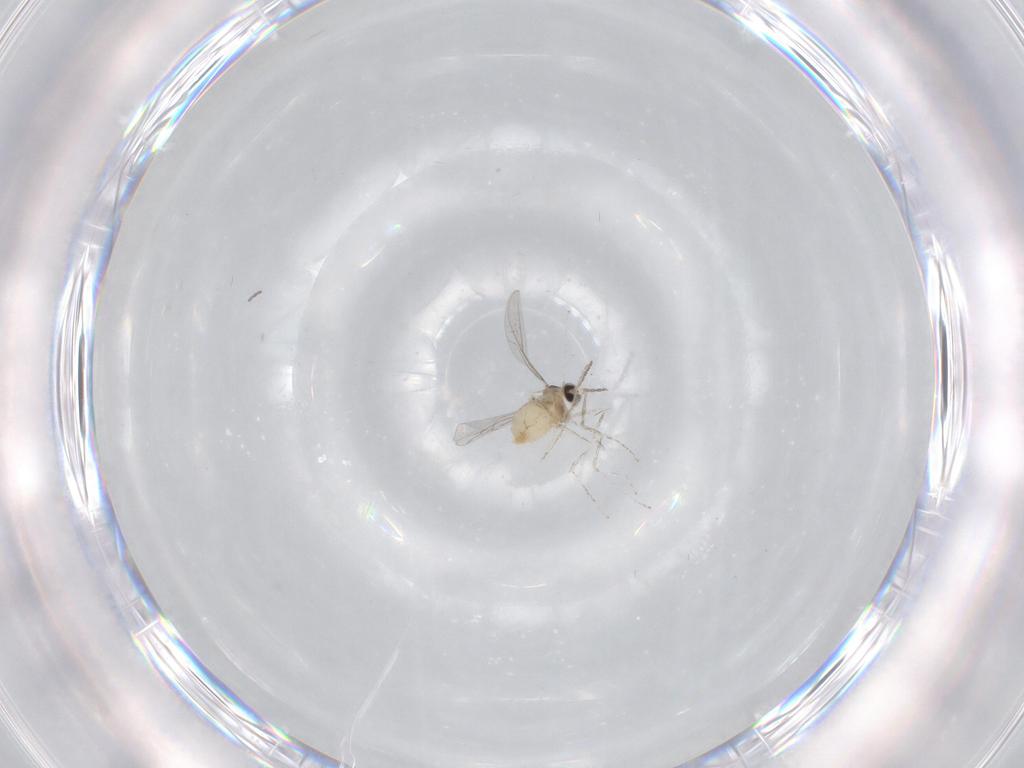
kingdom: Animalia
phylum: Arthropoda
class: Insecta
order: Diptera
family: Cecidomyiidae
